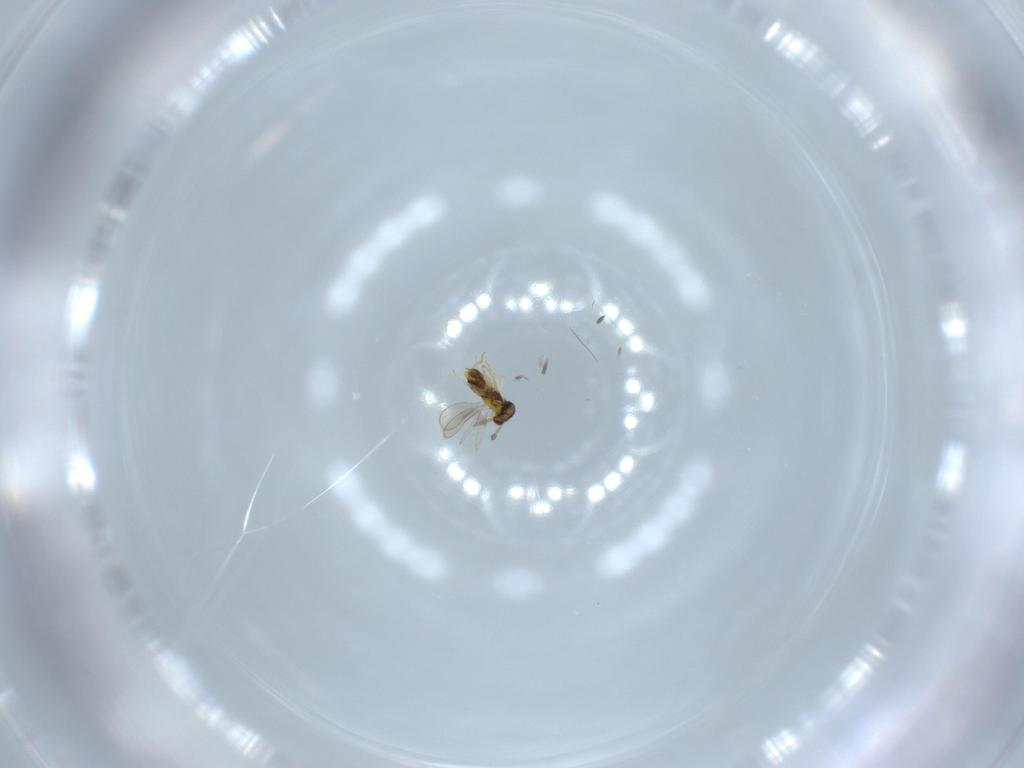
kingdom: Animalia
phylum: Arthropoda
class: Insecta
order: Hymenoptera
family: Aphelinidae
